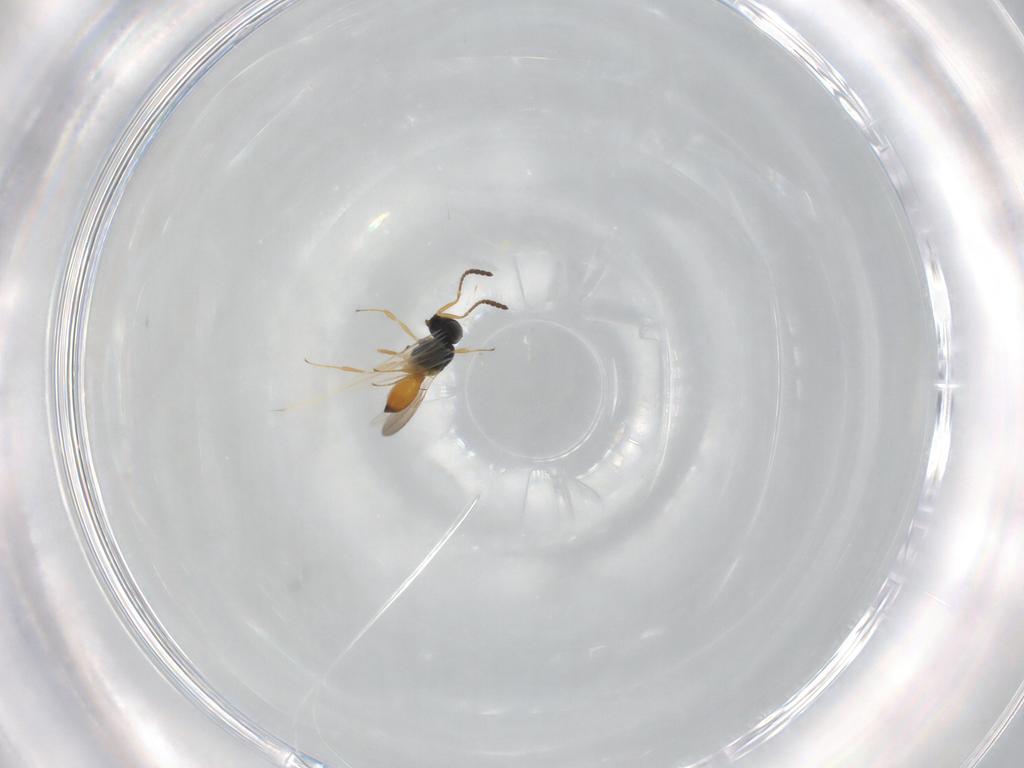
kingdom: Animalia
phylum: Arthropoda
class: Insecta
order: Hymenoptera
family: Scelionidae
